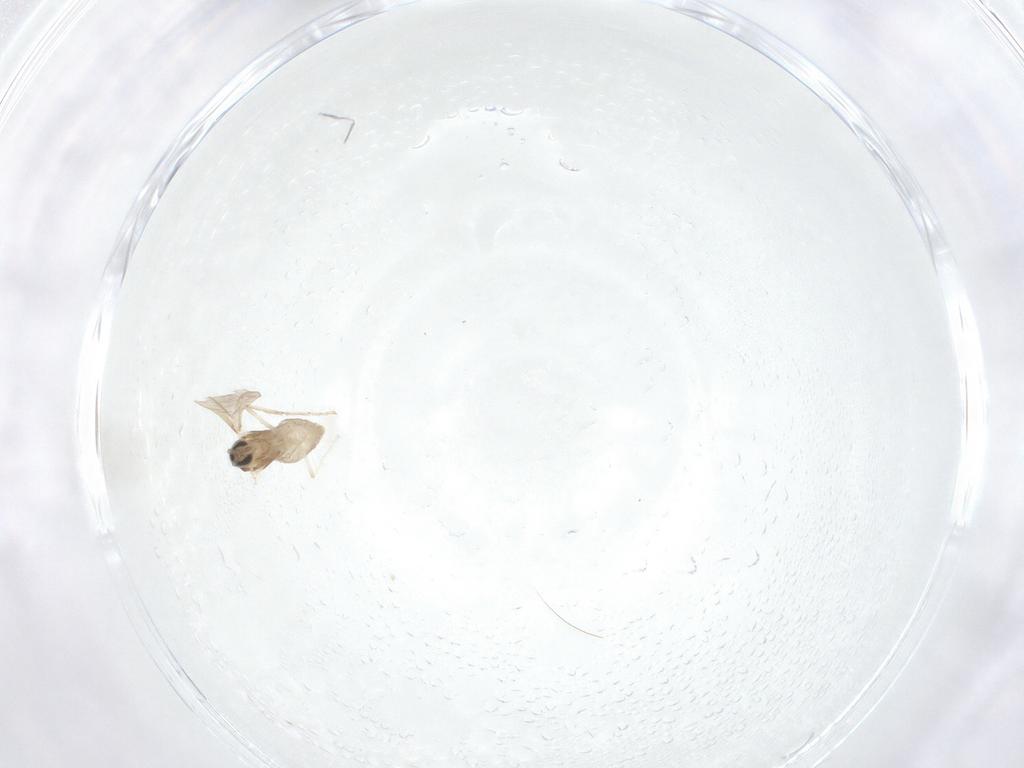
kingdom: Animalia
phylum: Arthropoda
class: Insecta
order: Diptera
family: Cecidomyiidae
